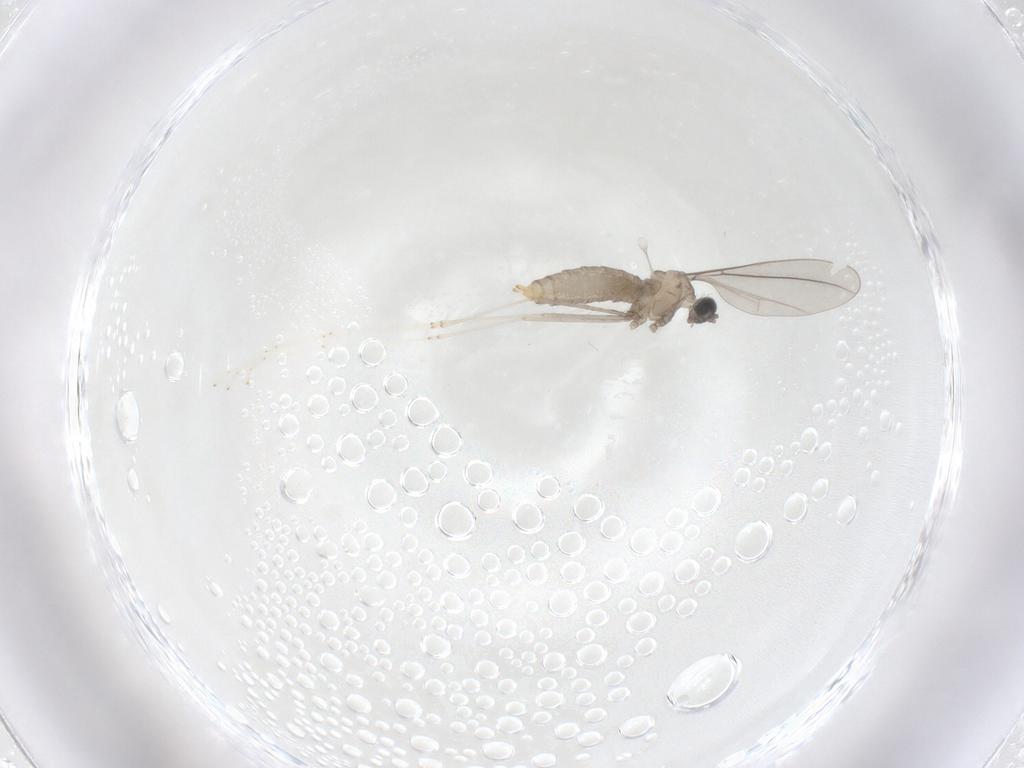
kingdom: Animalia
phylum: Arthropoda
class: Insecta
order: Diptera
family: Cecidomyiidae
